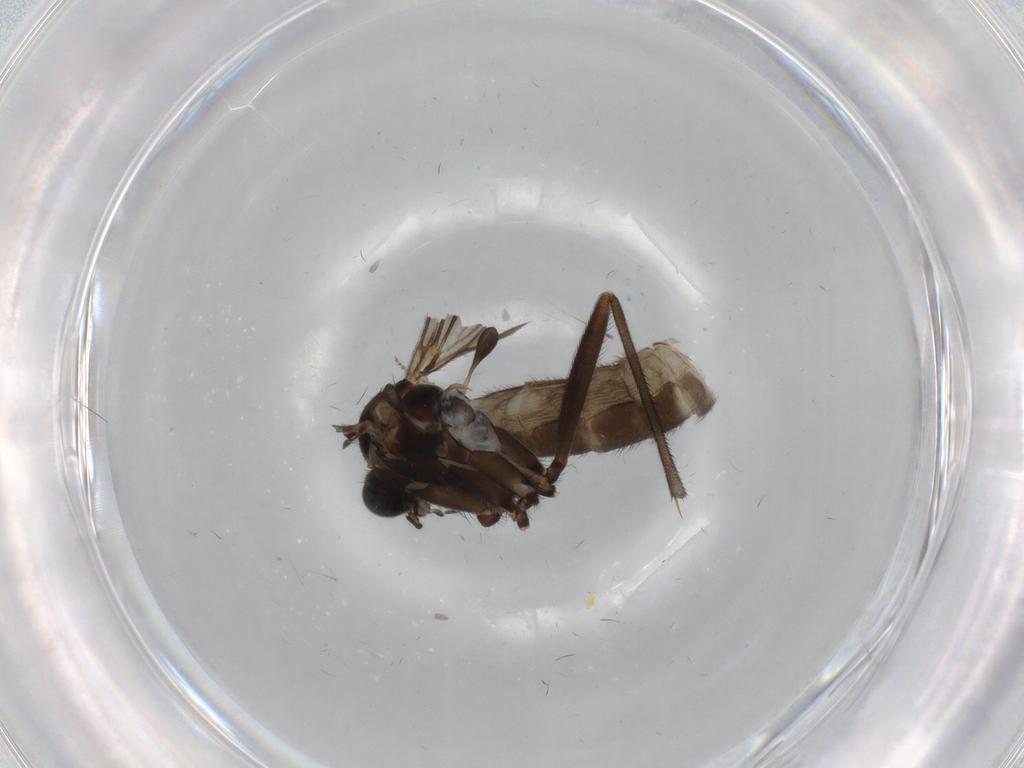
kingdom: Animalia
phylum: Arthropoda
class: Insecta
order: Diptera
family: Sciaridae
